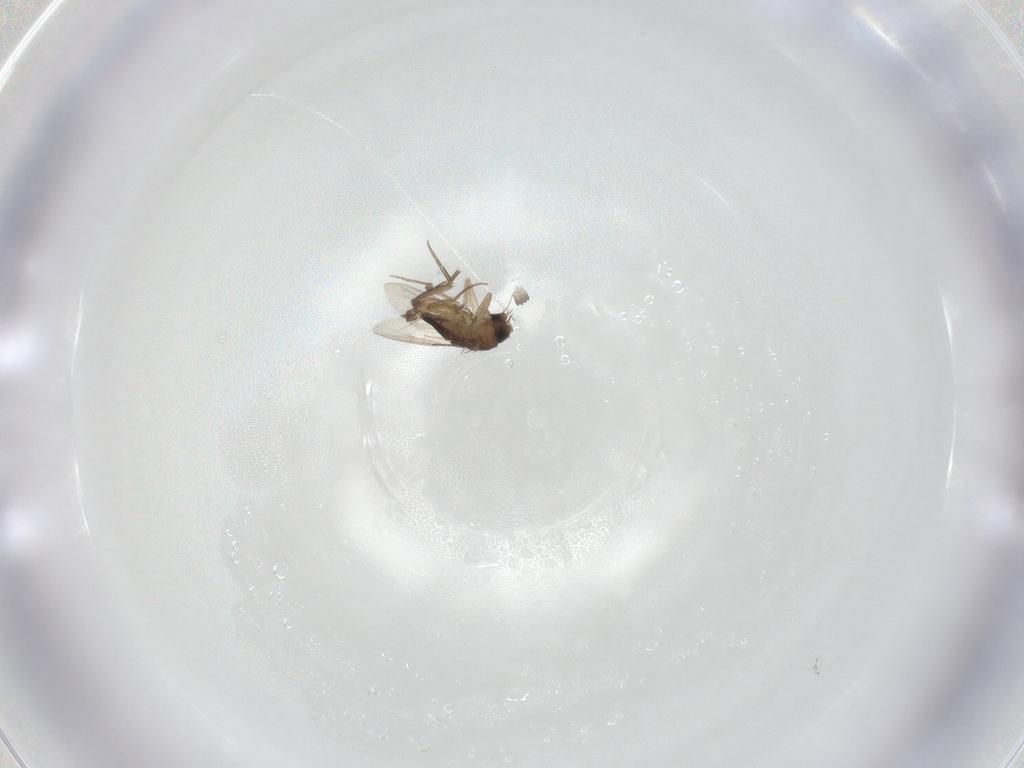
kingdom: Animalia
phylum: Arthropoda
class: Insecta
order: Diptera
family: Phoridae
